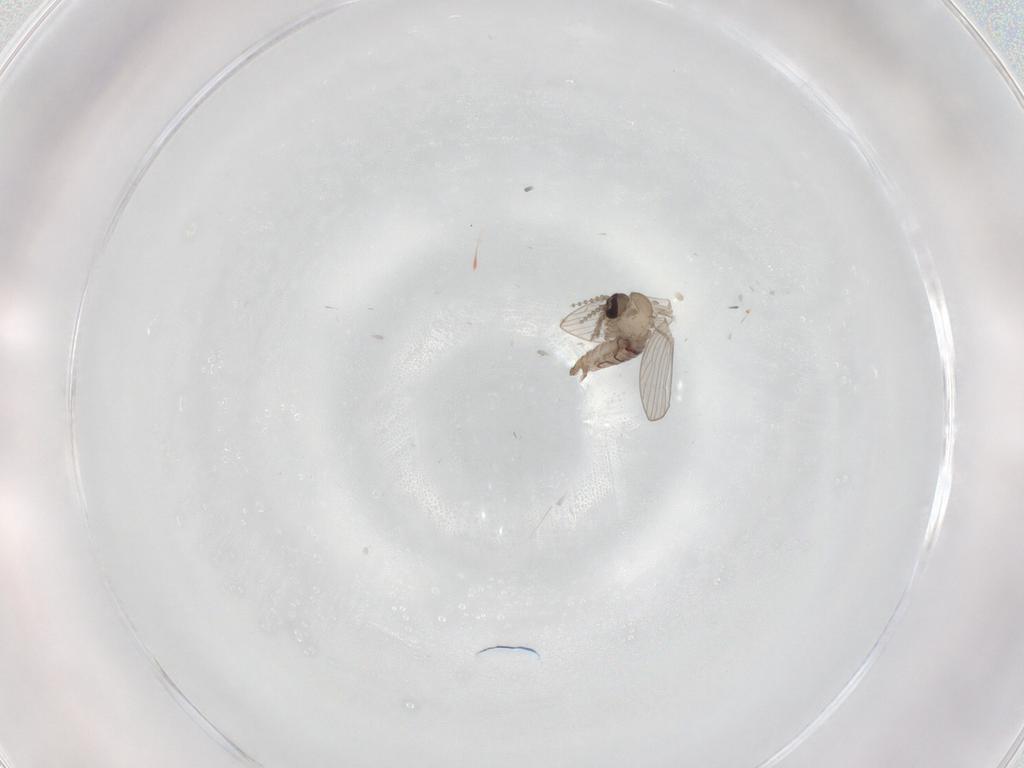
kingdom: Animalia
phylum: Arthropoda
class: Insecta
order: Diptera
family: Psychodidae
